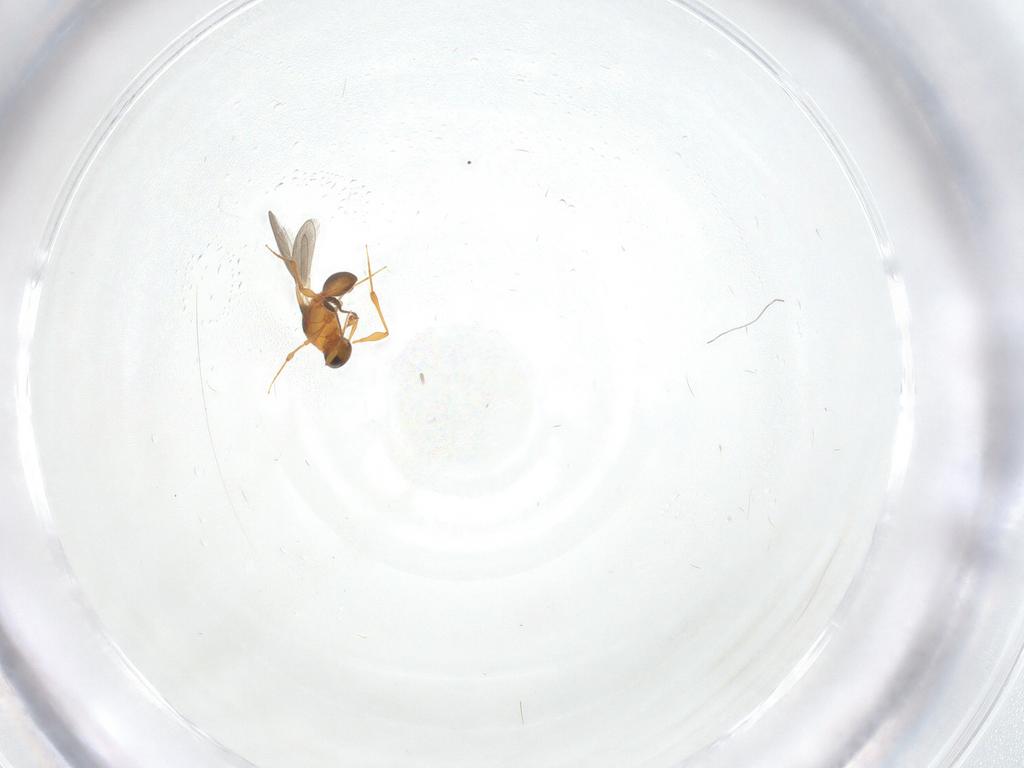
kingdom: Animalia
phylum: Arthropoda
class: Insecta
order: Hymenoptera
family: Platygastridae
